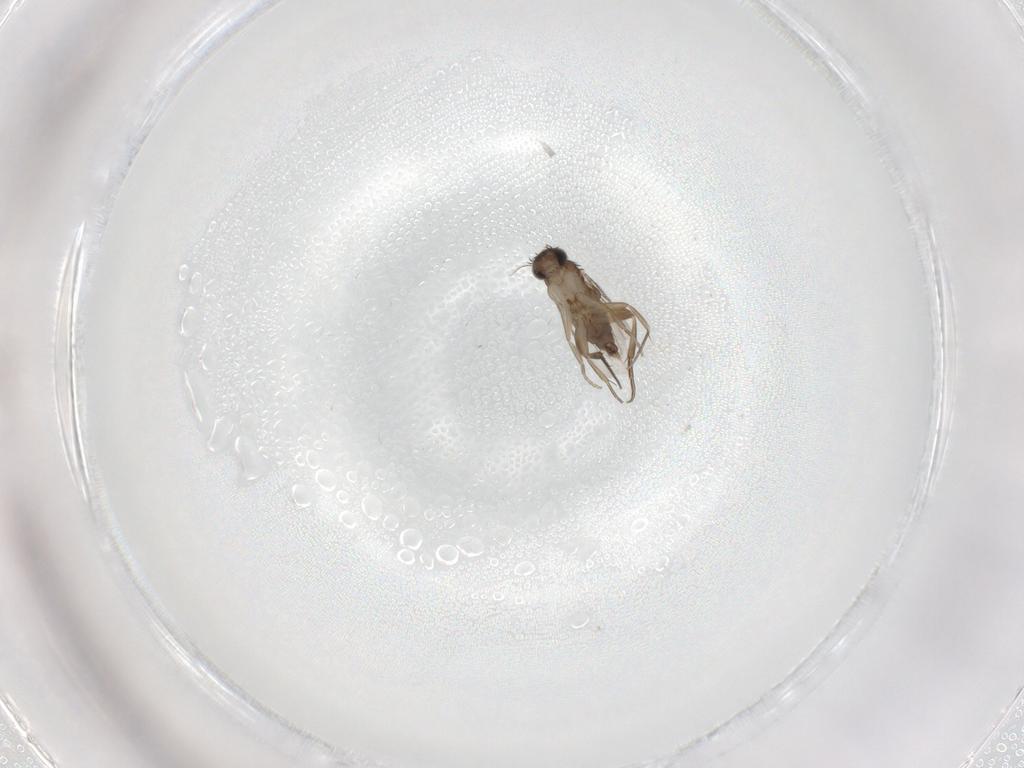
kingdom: Animalia
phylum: Arthropoda
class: Insecta
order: Diptera
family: Sphaeroceridae
